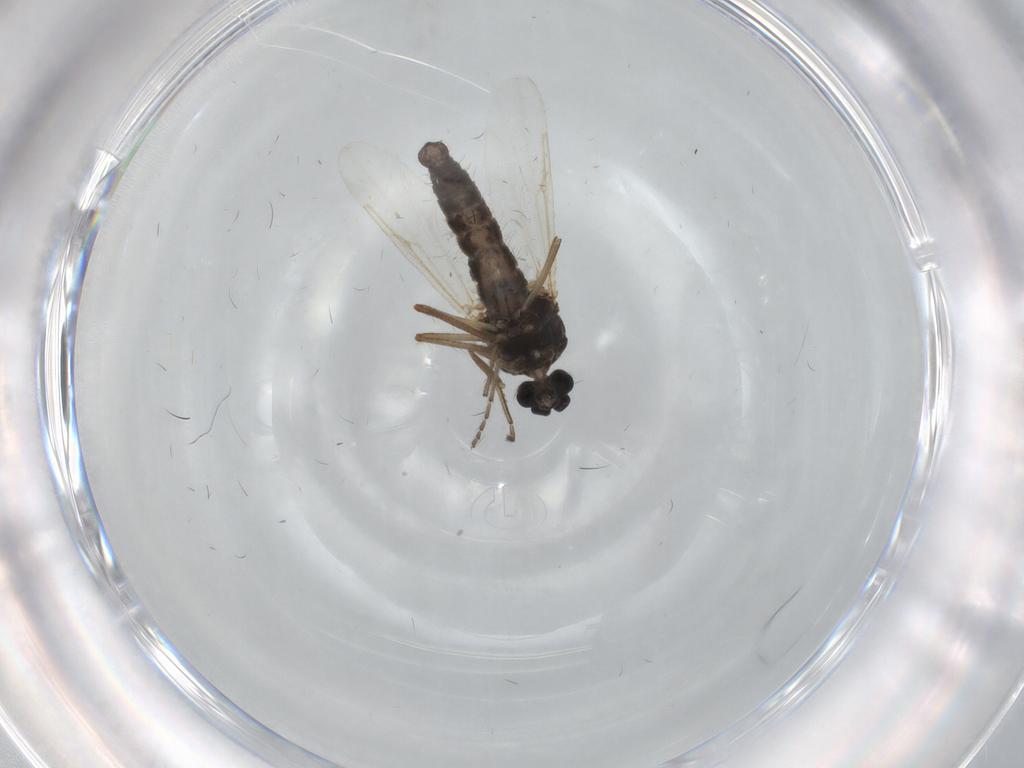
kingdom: Animalia
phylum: Arthropoda
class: Insecta
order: Diptera
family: Ceratopogonidae
